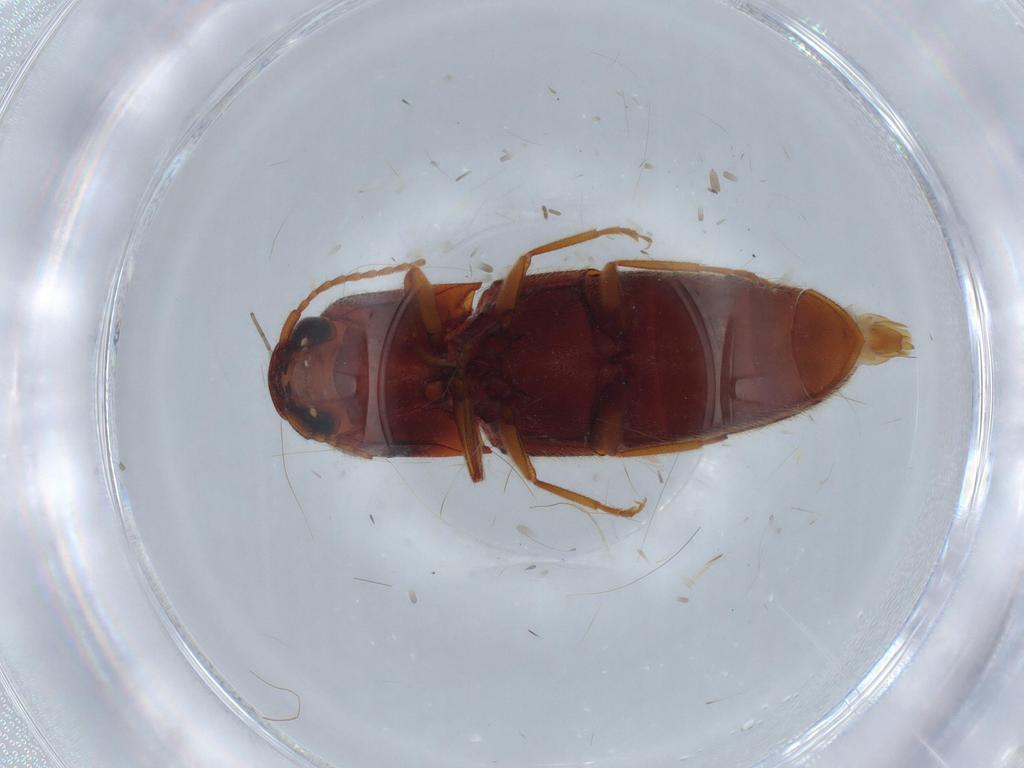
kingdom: Animalia
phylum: Arthropoda
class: Insecta
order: Coleoptera
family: Elateridae
